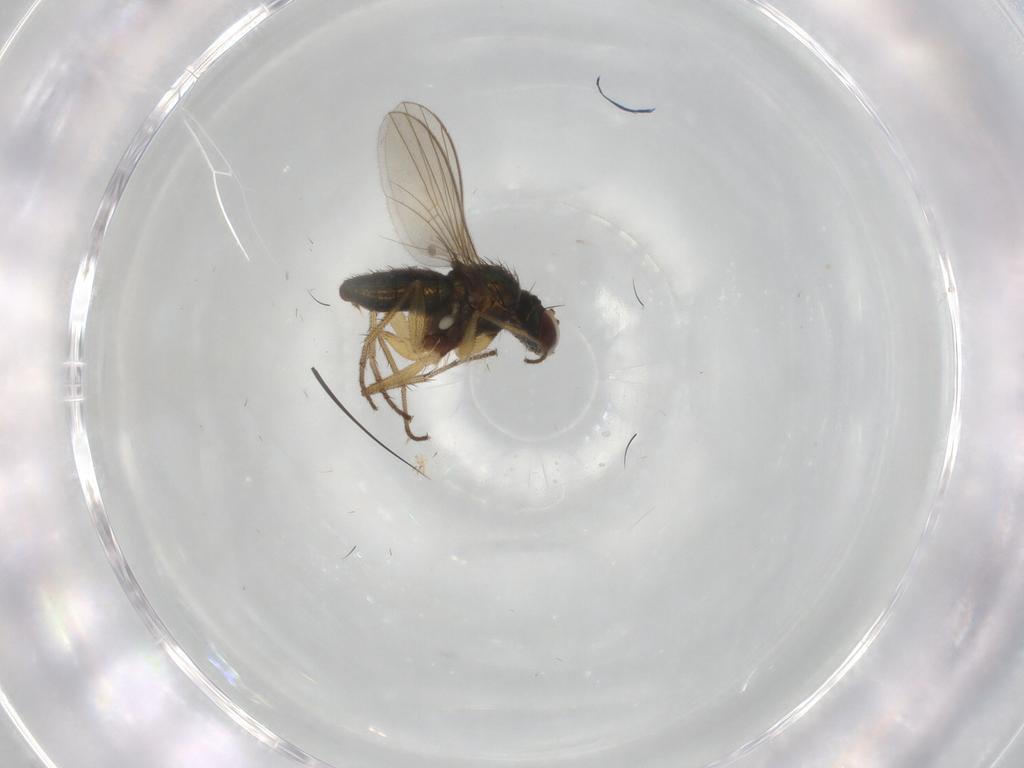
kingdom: Animalia
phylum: Arthropoda
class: Insecta
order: Diptera
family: Dolichopodidae
